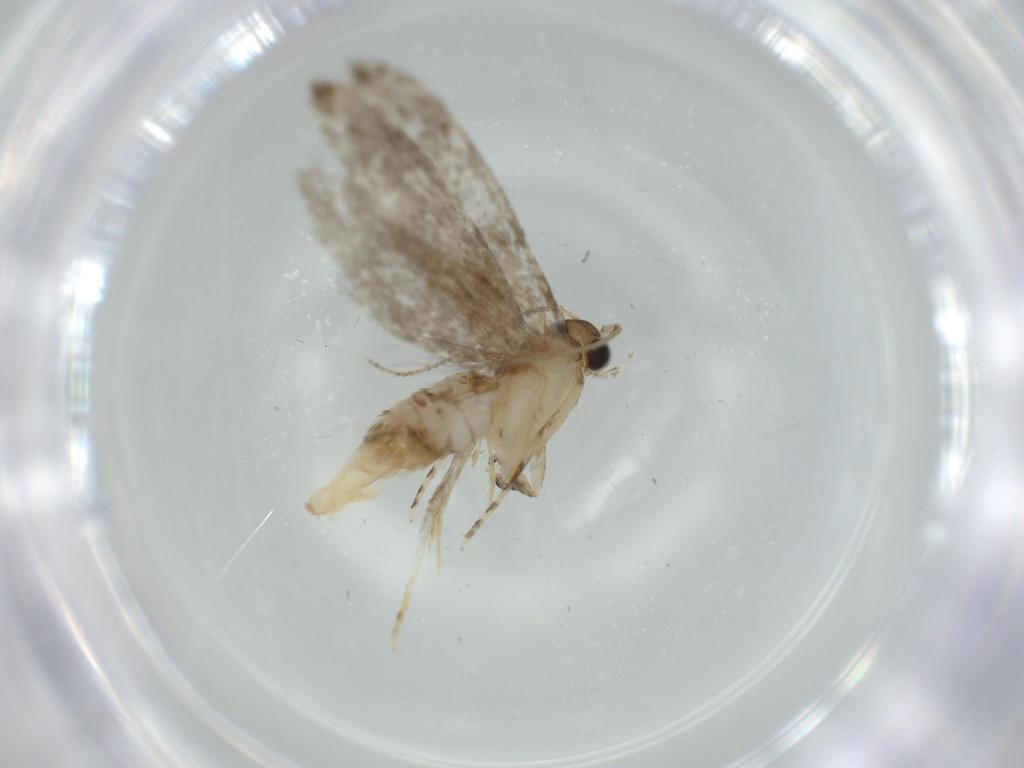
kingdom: Animalia
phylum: Arthropoda
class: Insecta
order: Lepidoptera
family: Tineidae
